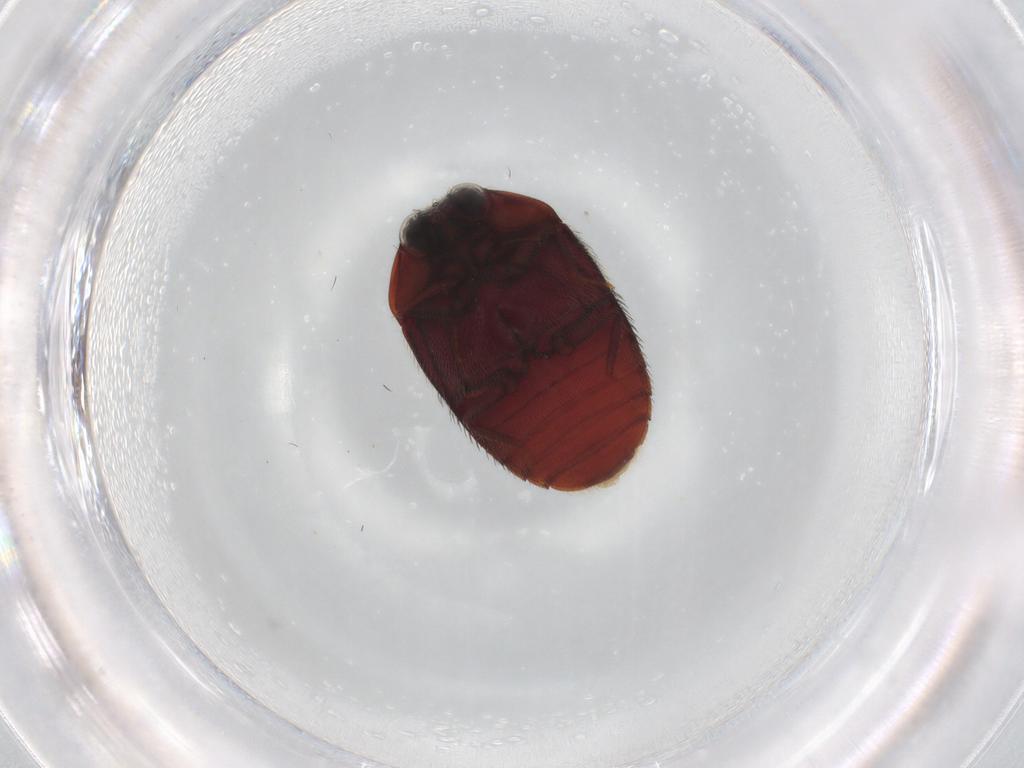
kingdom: Animalia
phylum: Arthropoda
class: Insecta
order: Coleoptera
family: Dermestidae
